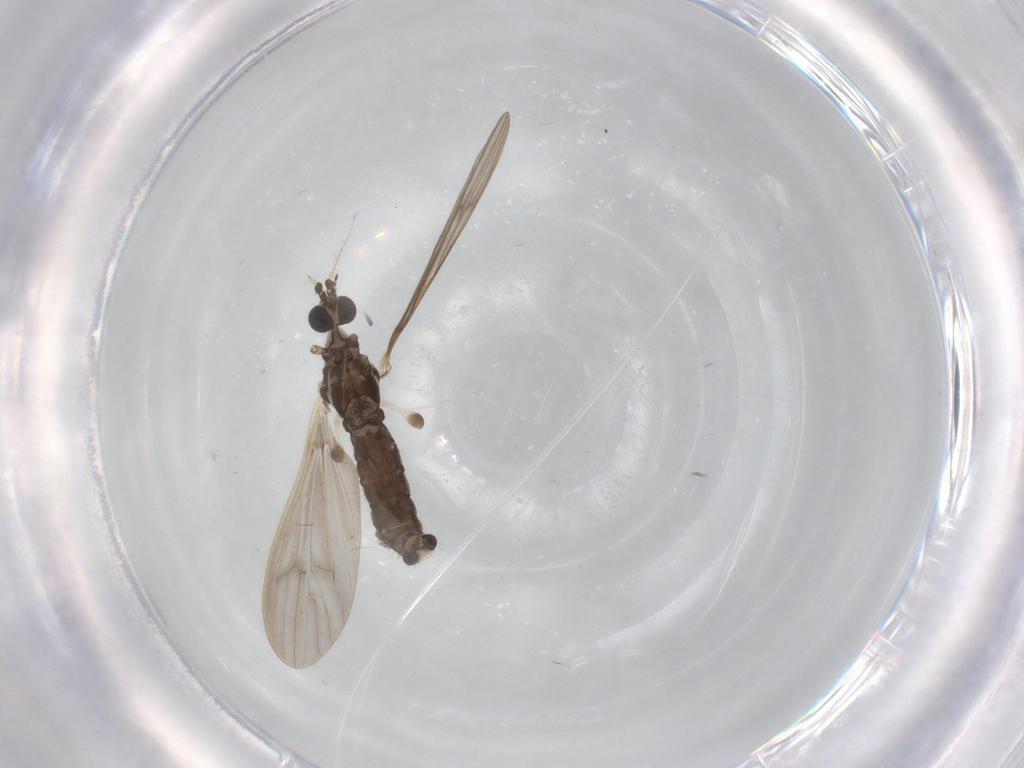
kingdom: Animalia
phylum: Arthropoda
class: Insecta
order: Diptera
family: Limoniidae
